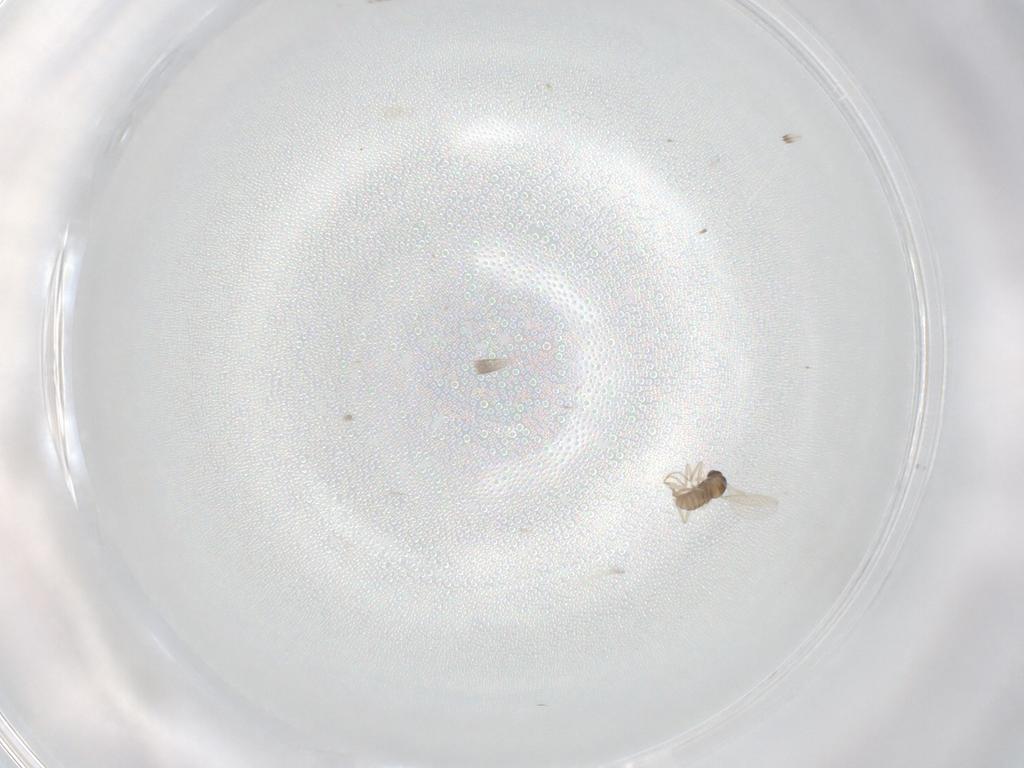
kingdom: Animalia
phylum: Arthropoda
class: Insecta
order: Diptera
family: Cecidomyiidae
